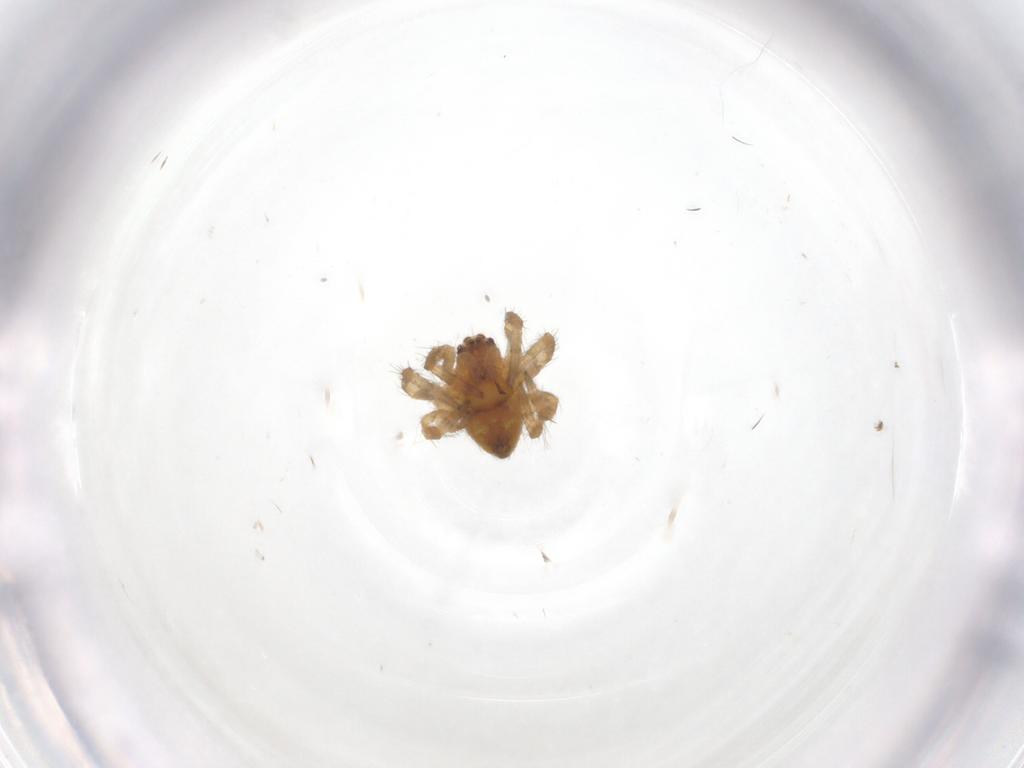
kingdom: Animalia
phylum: Arthropoda
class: Arachnida
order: Araneae
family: Araneidae
